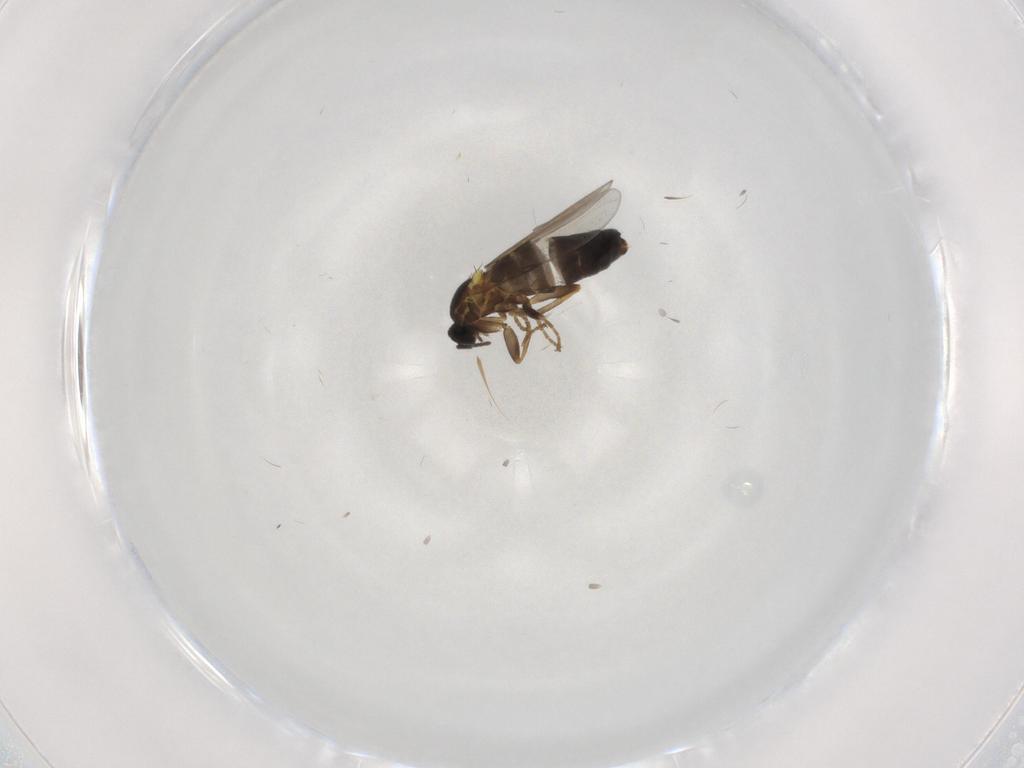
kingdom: Animalia
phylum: Arthropoda
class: Insecta
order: Diptera
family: Scatopsidae
